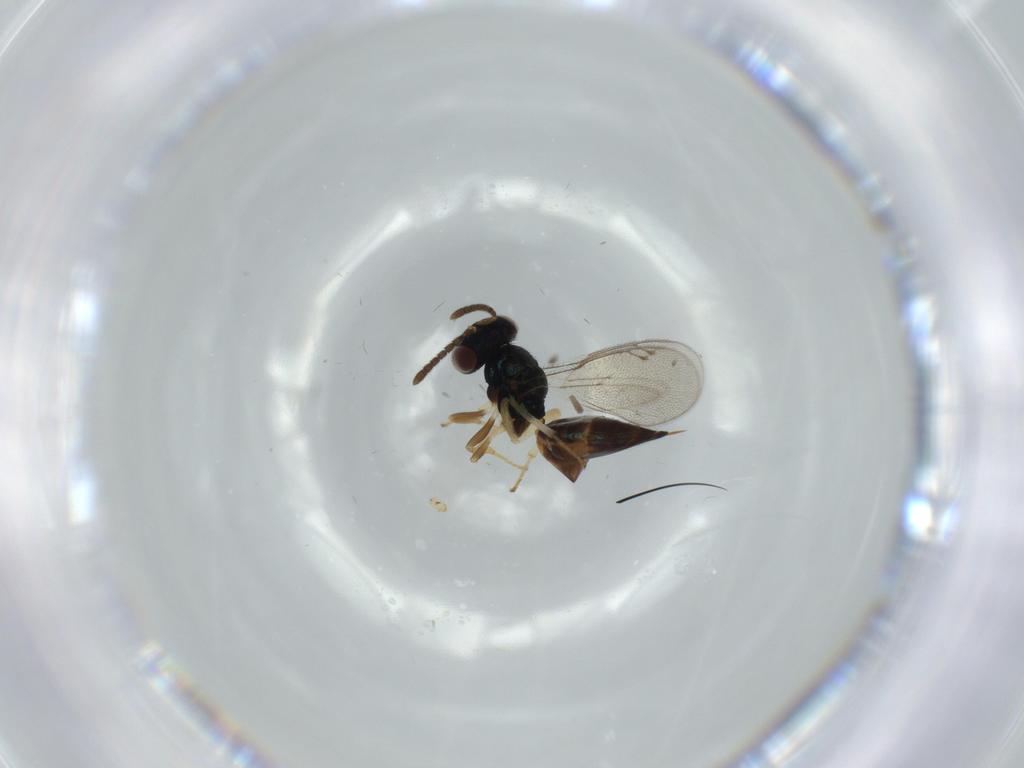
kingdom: Animalia
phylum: Arthropoda
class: Insecta
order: Hymenoptera
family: Pteromalidae
